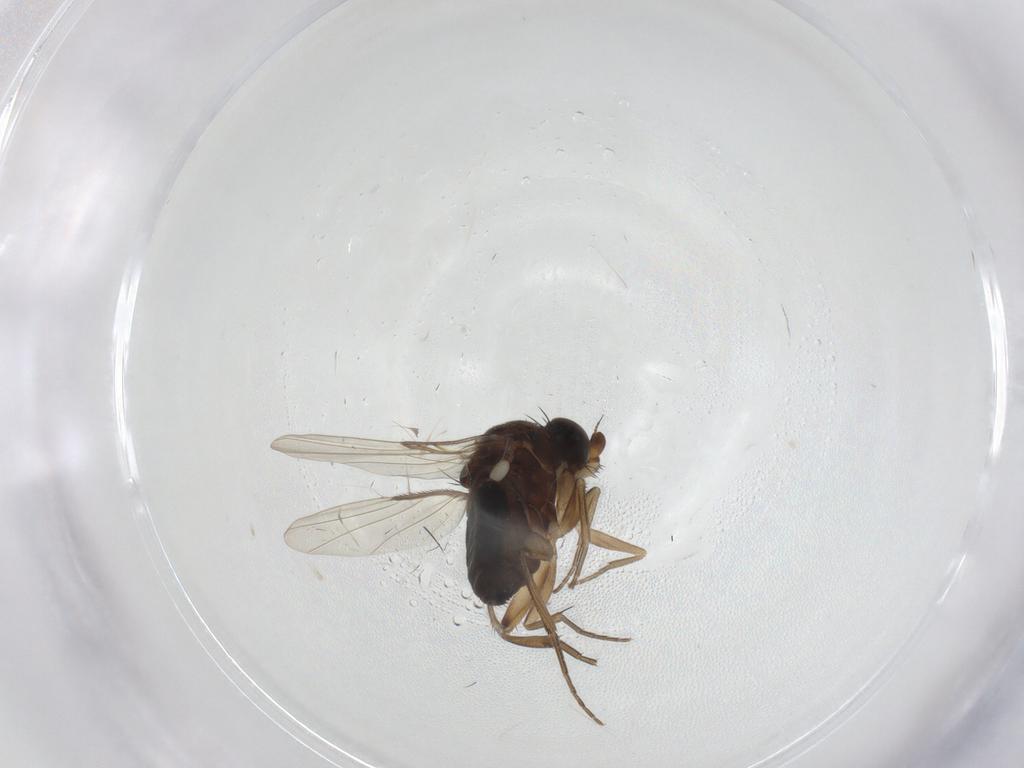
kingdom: Animalia
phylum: Arthropoda
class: Insecta
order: Diptera
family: Phoridae
